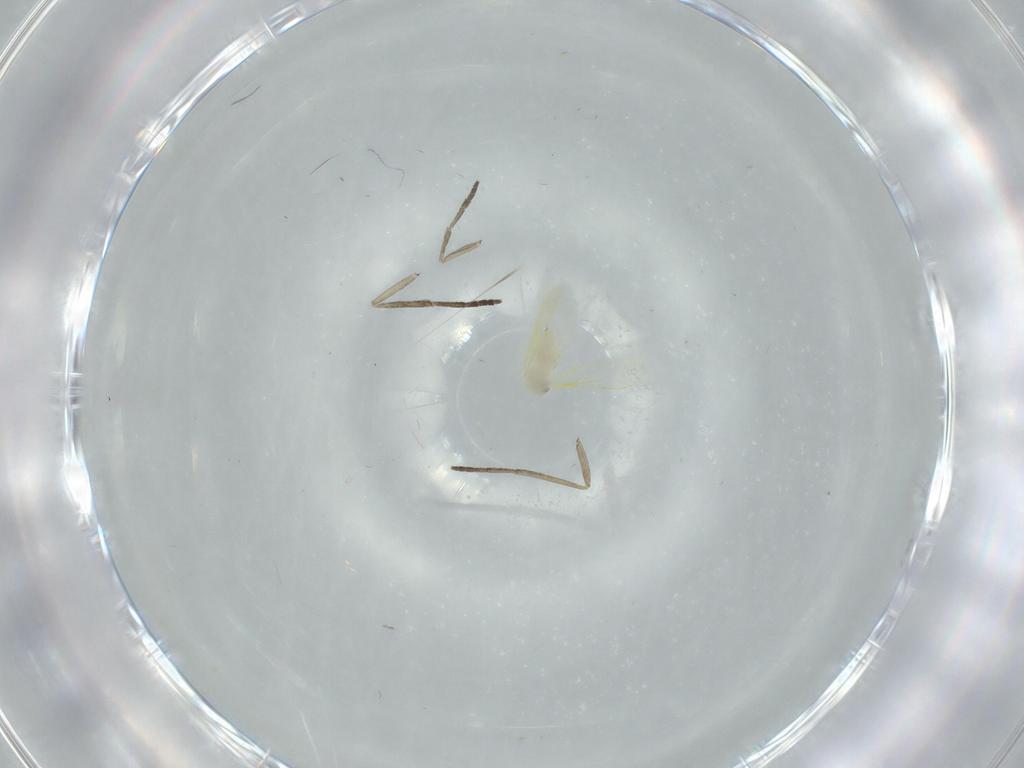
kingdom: Animalia
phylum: Arthropoda
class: Insecta
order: Hemiptera
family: Aleyrodidae
